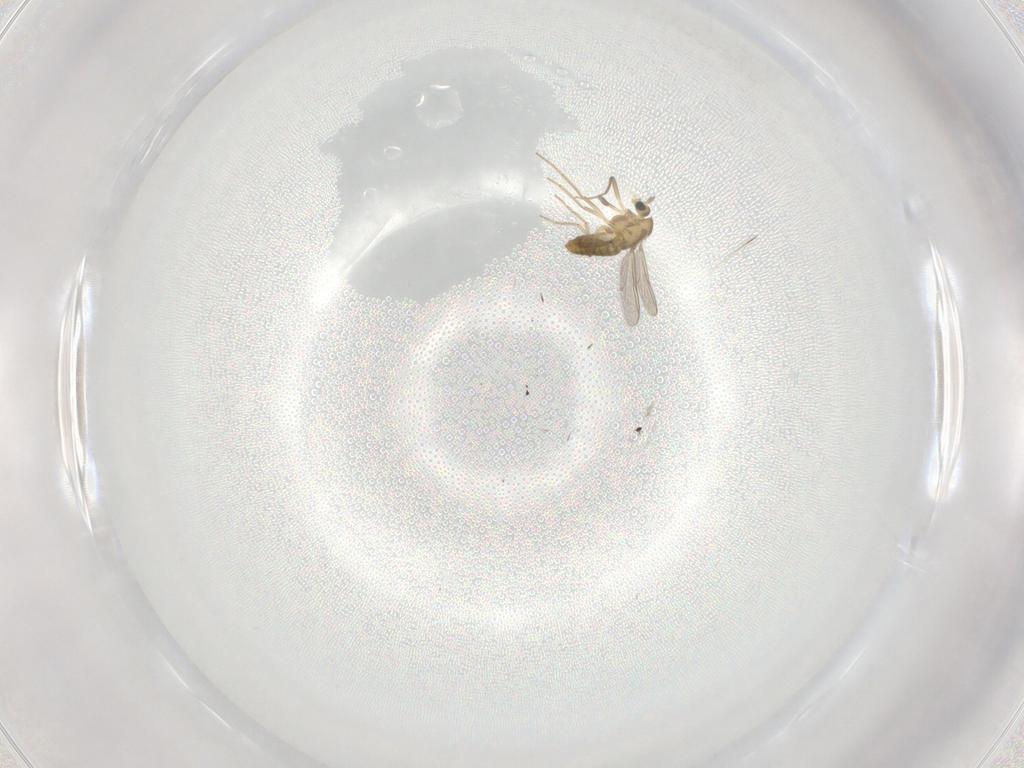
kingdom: Animalia
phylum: Arthropoda
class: Insecta
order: Diptera
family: Chironomidae
